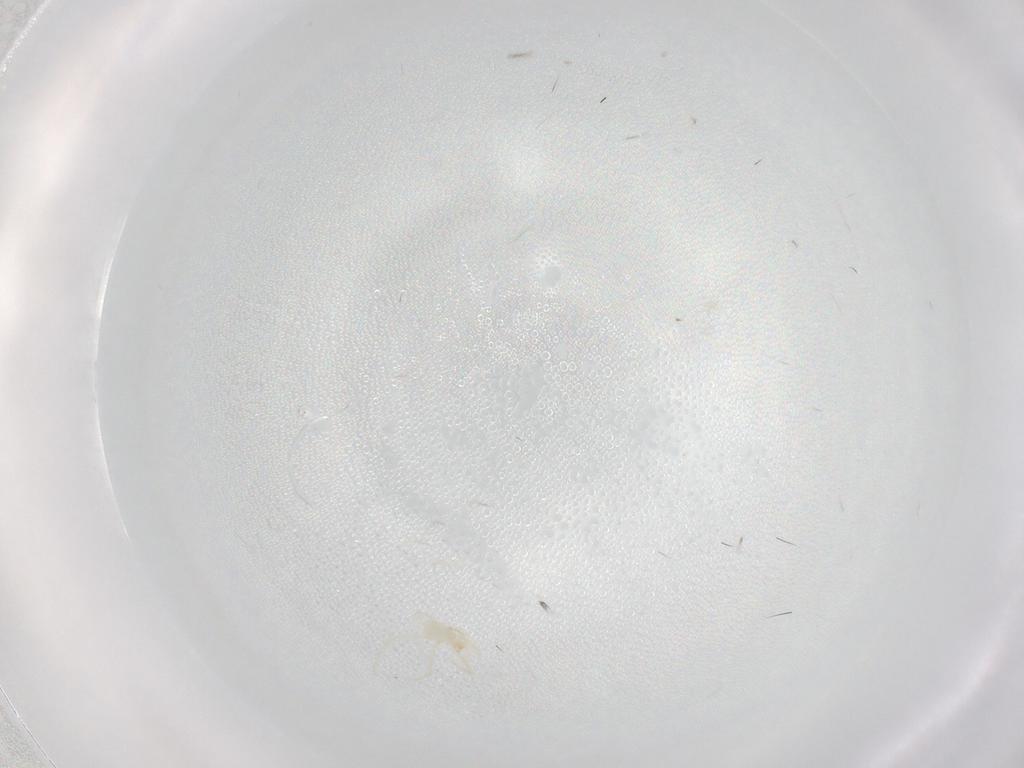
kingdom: Animalia
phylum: Arthropoda
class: Arachnida
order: Trombidiformes
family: Erythraeidae
